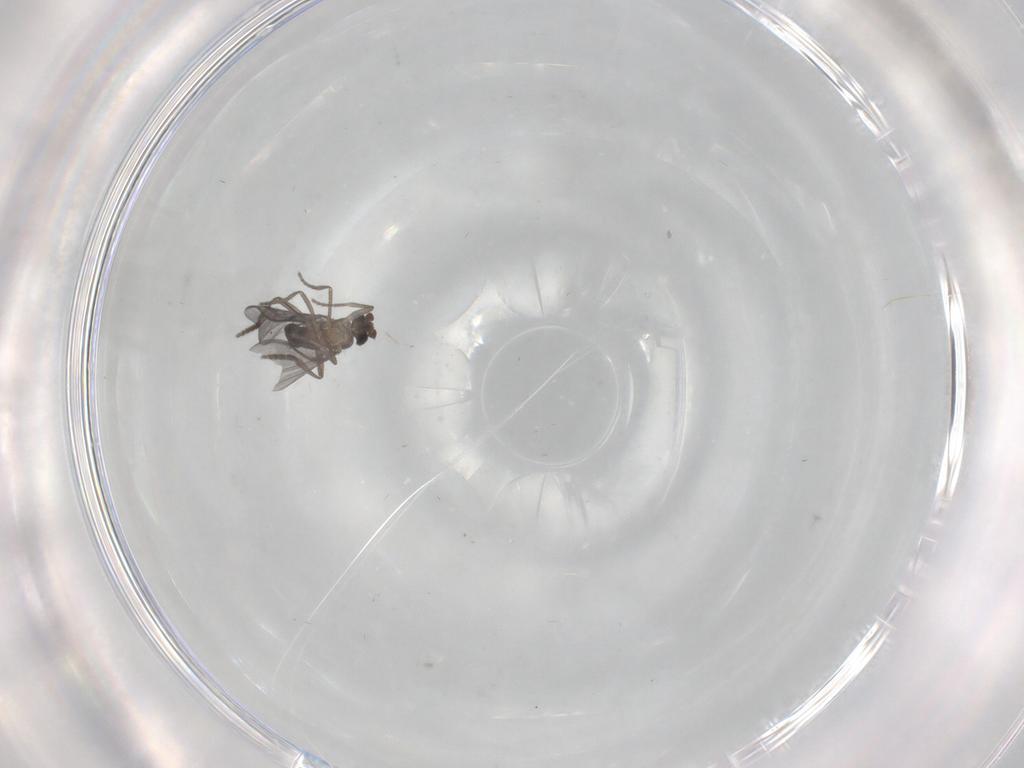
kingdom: Animalia
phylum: Arthropoda
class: Insecta
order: Diptera
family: Phoridae
